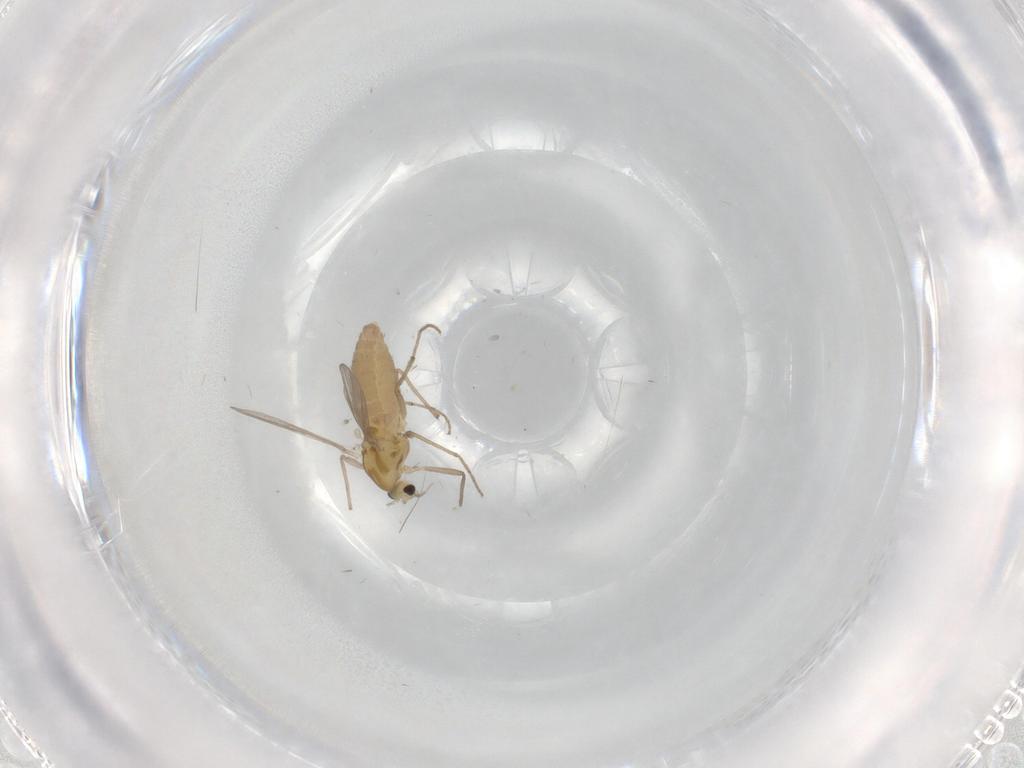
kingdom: Animalia
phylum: Arthropoda
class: Insecta
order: Diptera
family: Chironomidae
